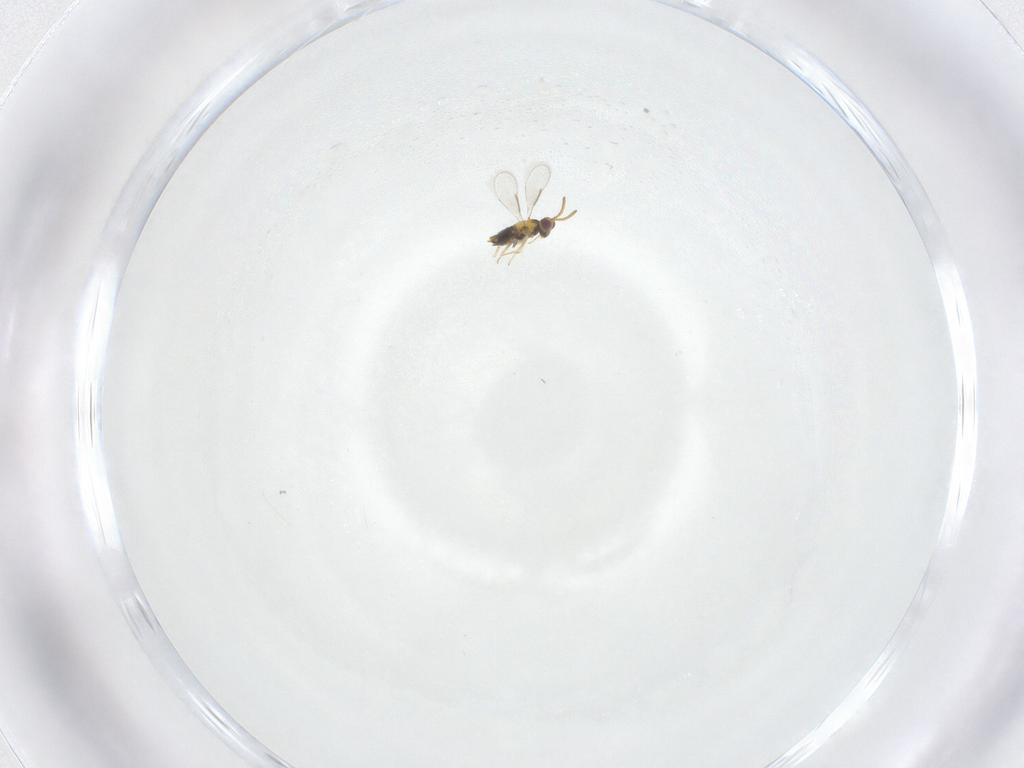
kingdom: Animalia
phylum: Arthropoda
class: Insecta
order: Hymenoptera
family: Aphelinidae
